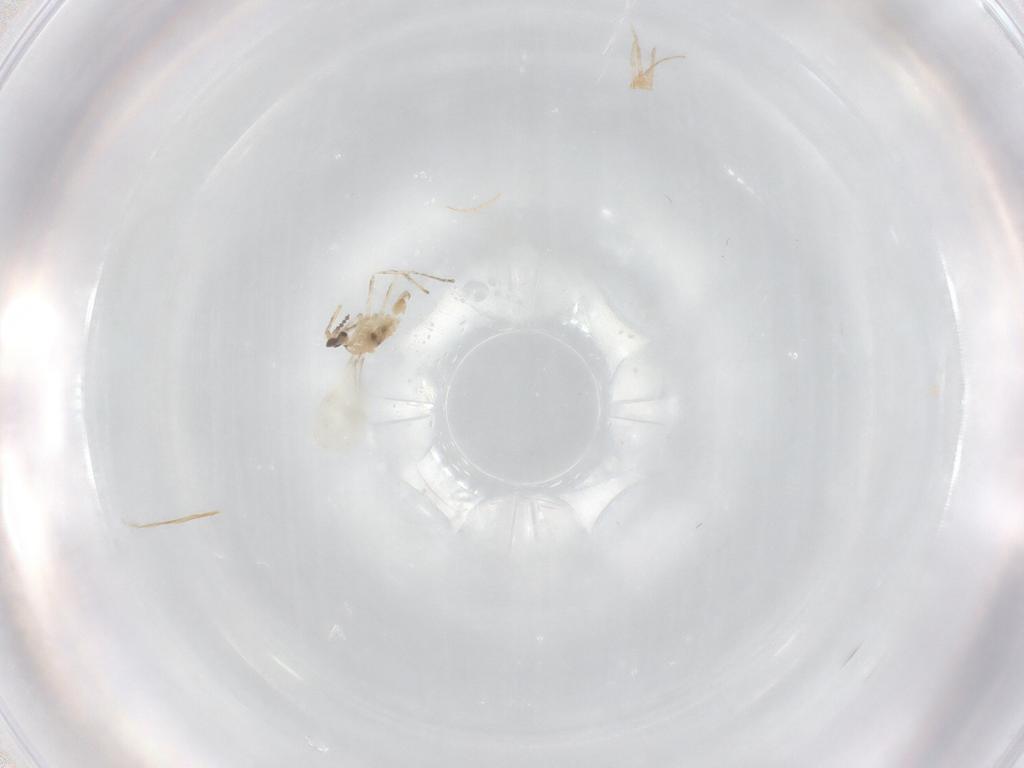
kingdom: Animalia
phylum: Arthropoda
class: Insecta
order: Diptera
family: Cecidomyiidae
